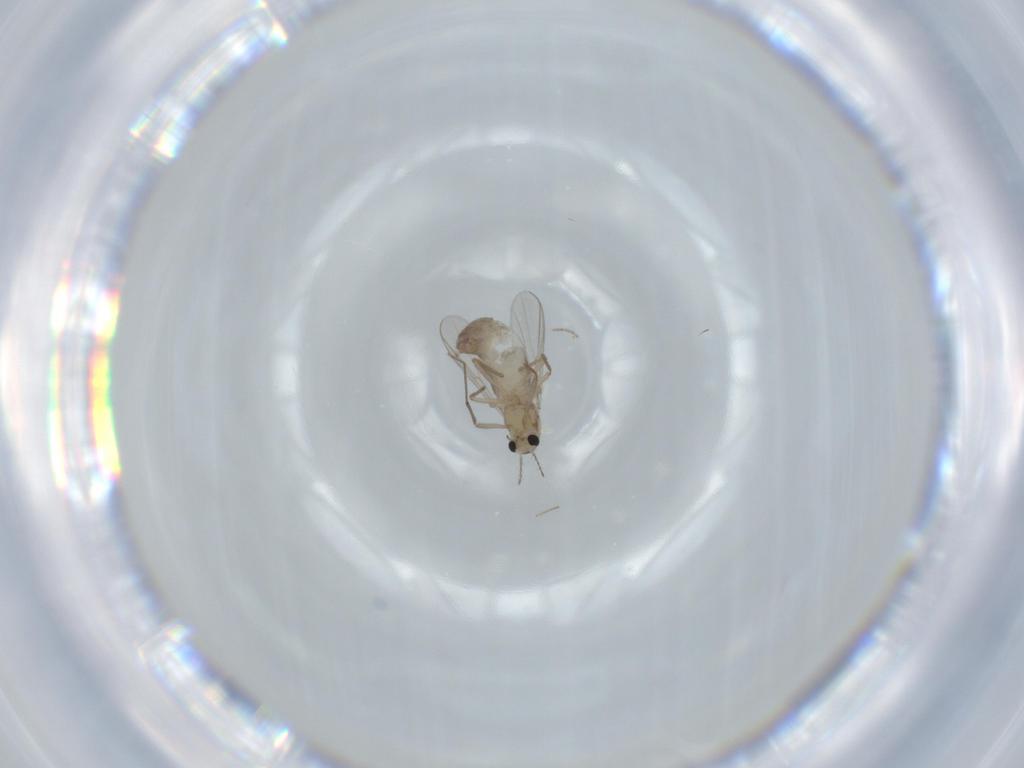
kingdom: Animalia
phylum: Arthropoda
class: Insecta
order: Diptera
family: Chironomidae
